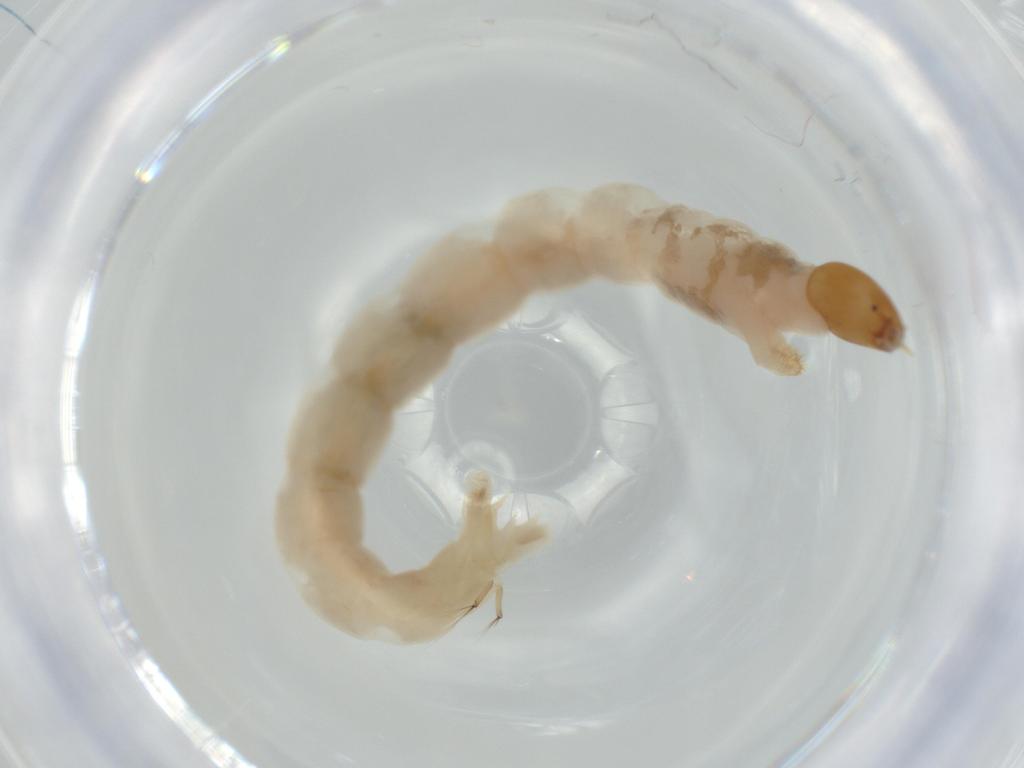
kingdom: Animalia
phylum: Arthropoda
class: Insecta
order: Diptera
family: Chironomidae
